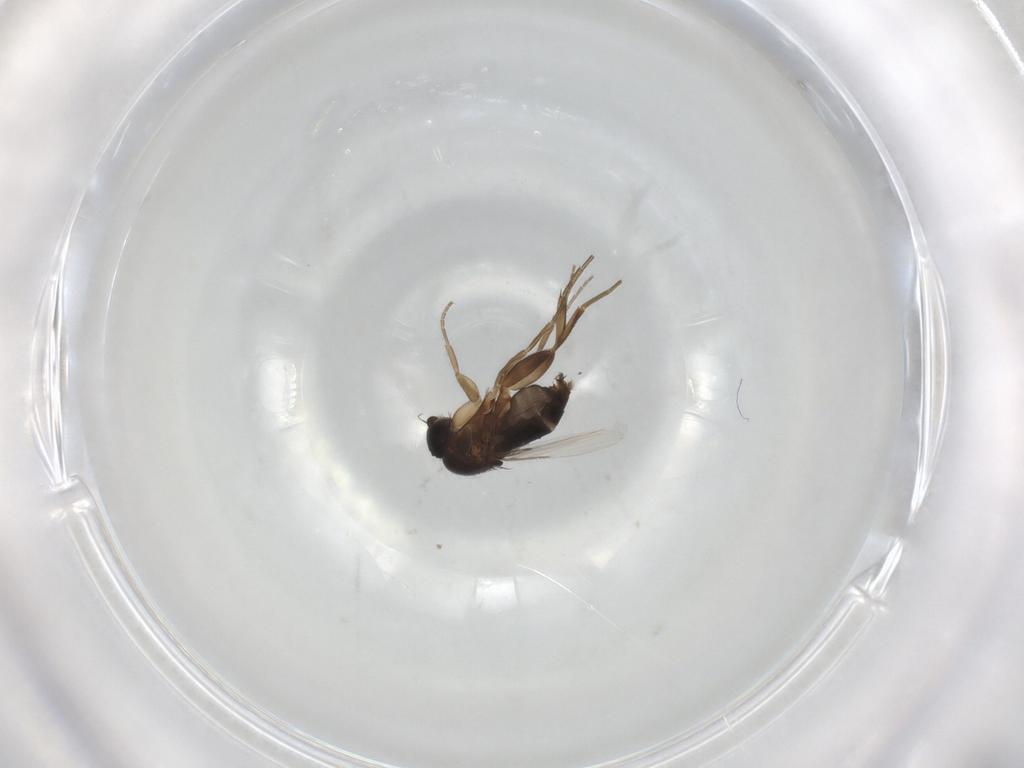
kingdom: Animalia
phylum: Arthropoda
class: Insecta
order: Diptera
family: Phoridae
